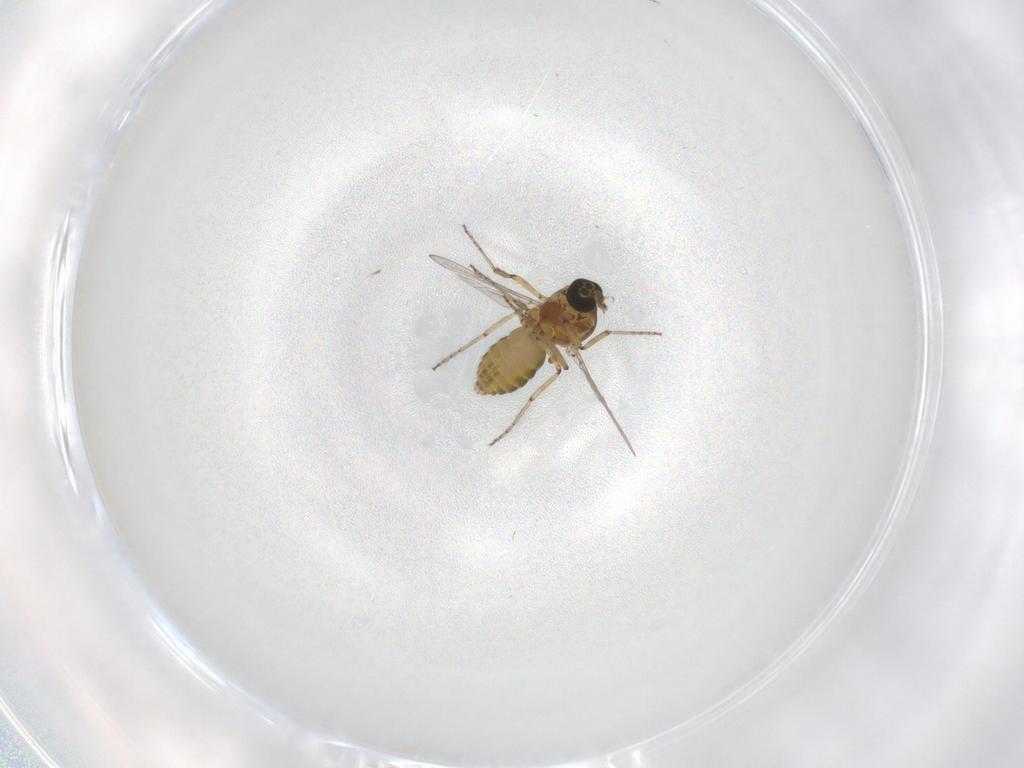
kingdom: Animalia
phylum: Arthropoda
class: Insecta
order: Diptera
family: Ceratopogonidae
